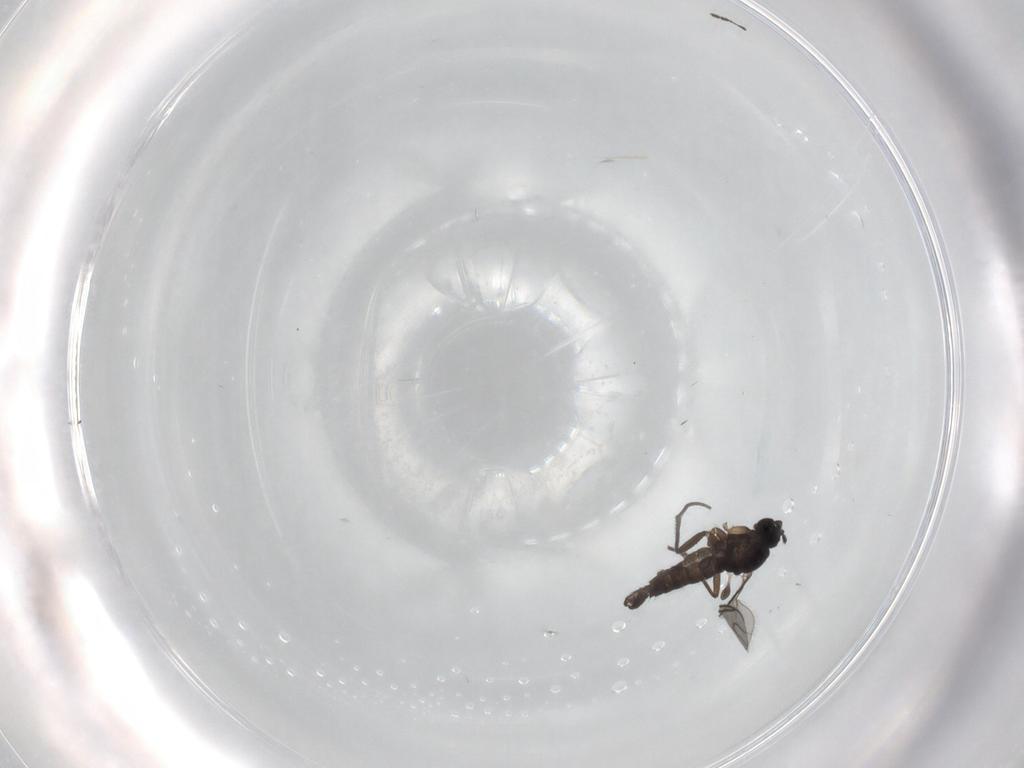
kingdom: Animalia
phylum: Arthropoda
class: Insecta
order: Diptera
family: Sciaridae
